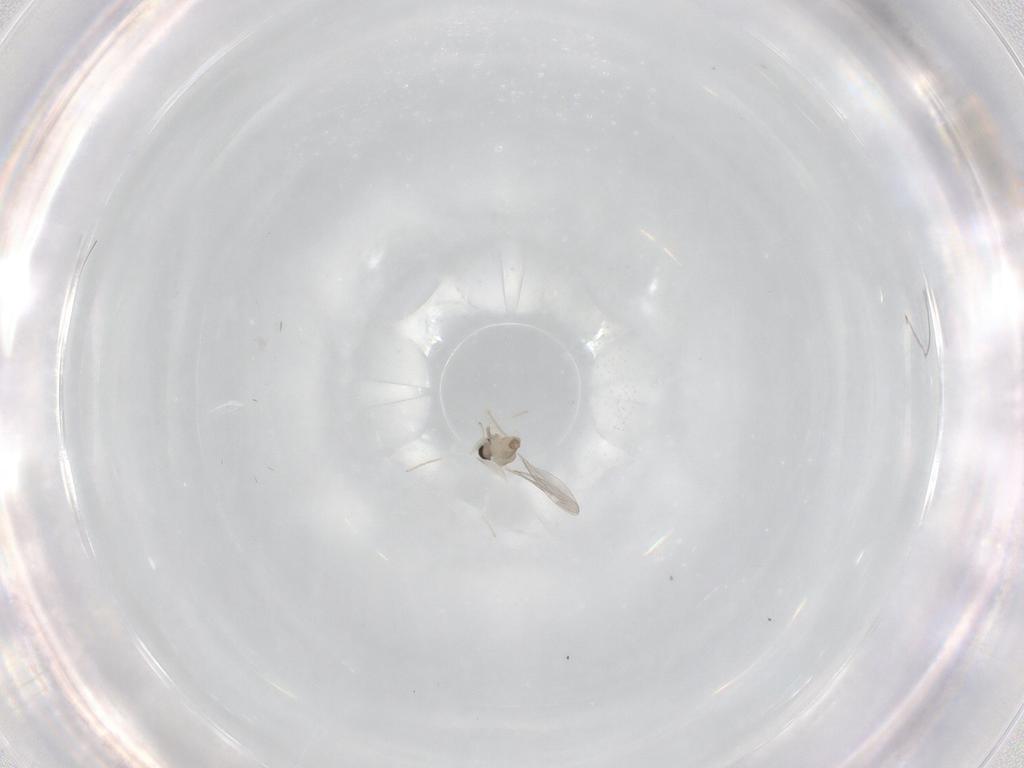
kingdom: Animalia
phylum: Arthropoda
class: Insecta
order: Diptera
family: Cecidomyiidae
